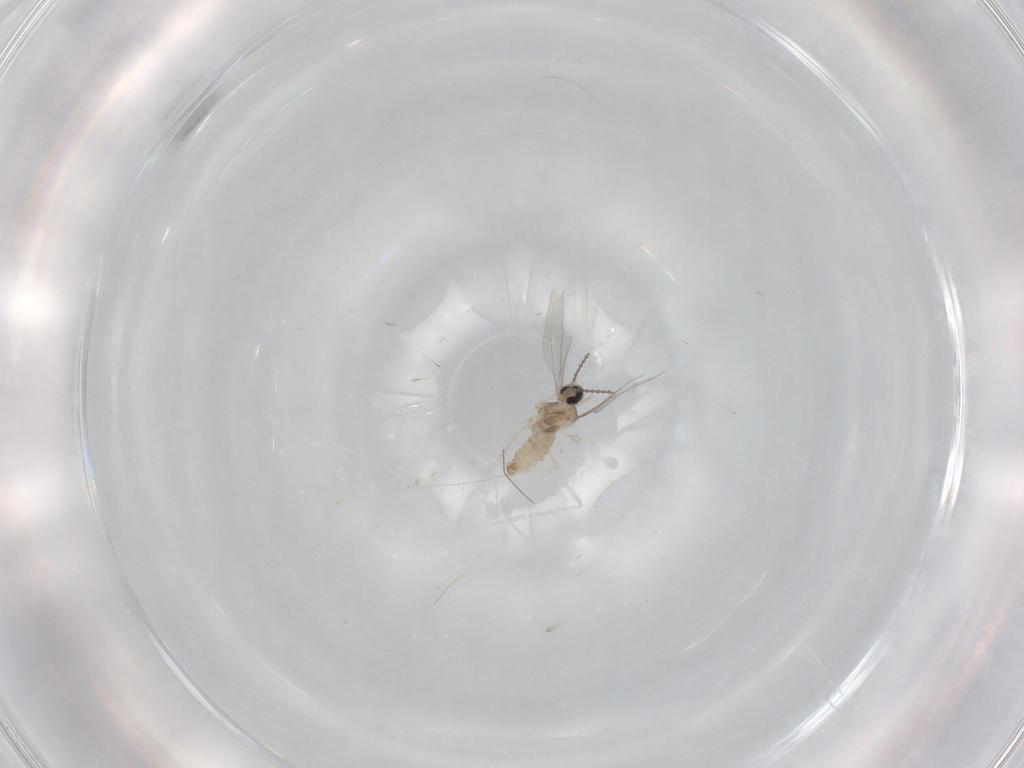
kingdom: Animalia
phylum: Arthropoda
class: Insecta
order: Diptera
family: Cecidomyiidae
